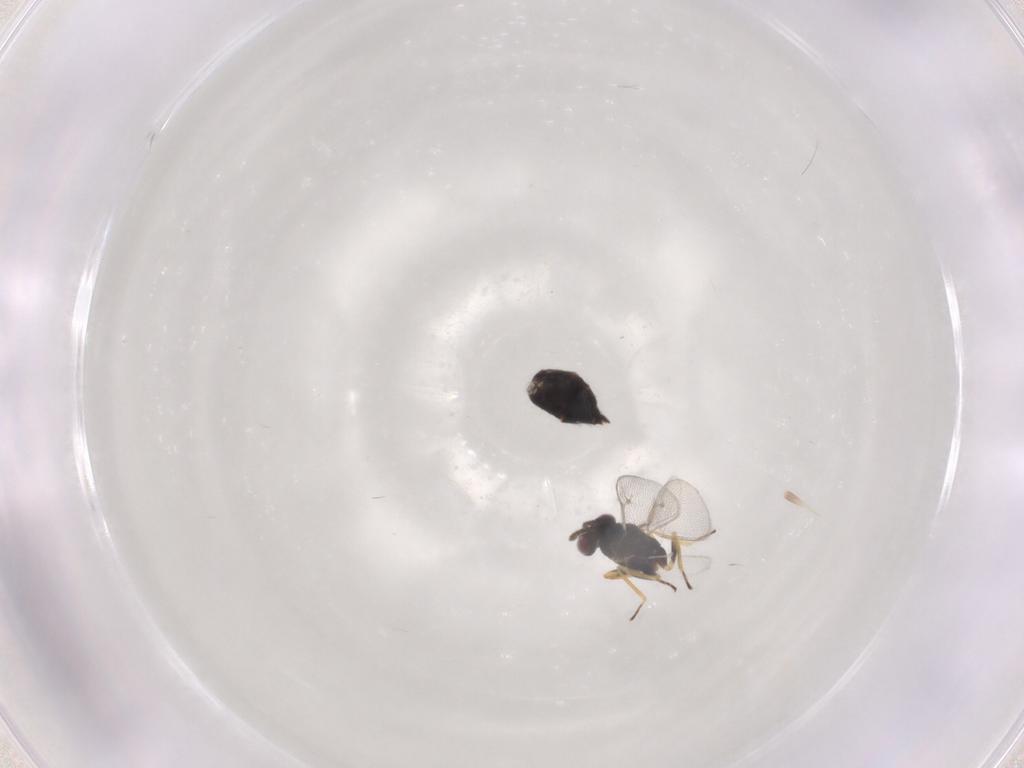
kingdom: Animalia
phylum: Arthropoda
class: Insecta
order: Hymenoptera
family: Eulophidae
